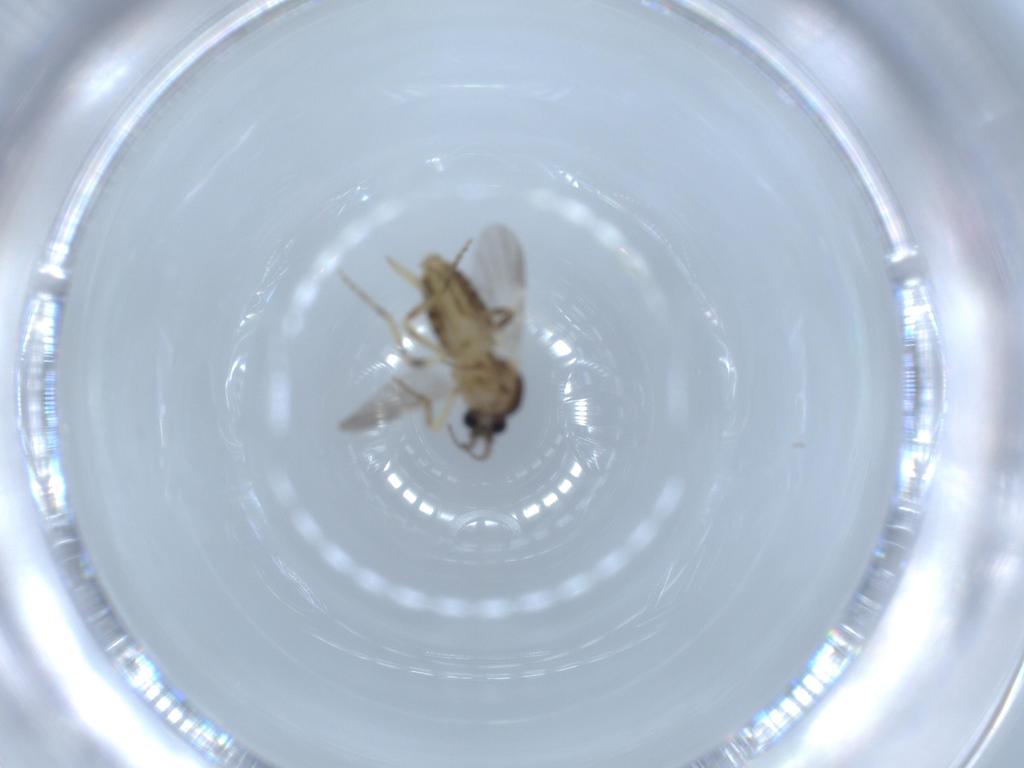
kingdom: Animalia
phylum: Arthropoda
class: Insecta
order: Diptera
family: Ceratopogonidae
